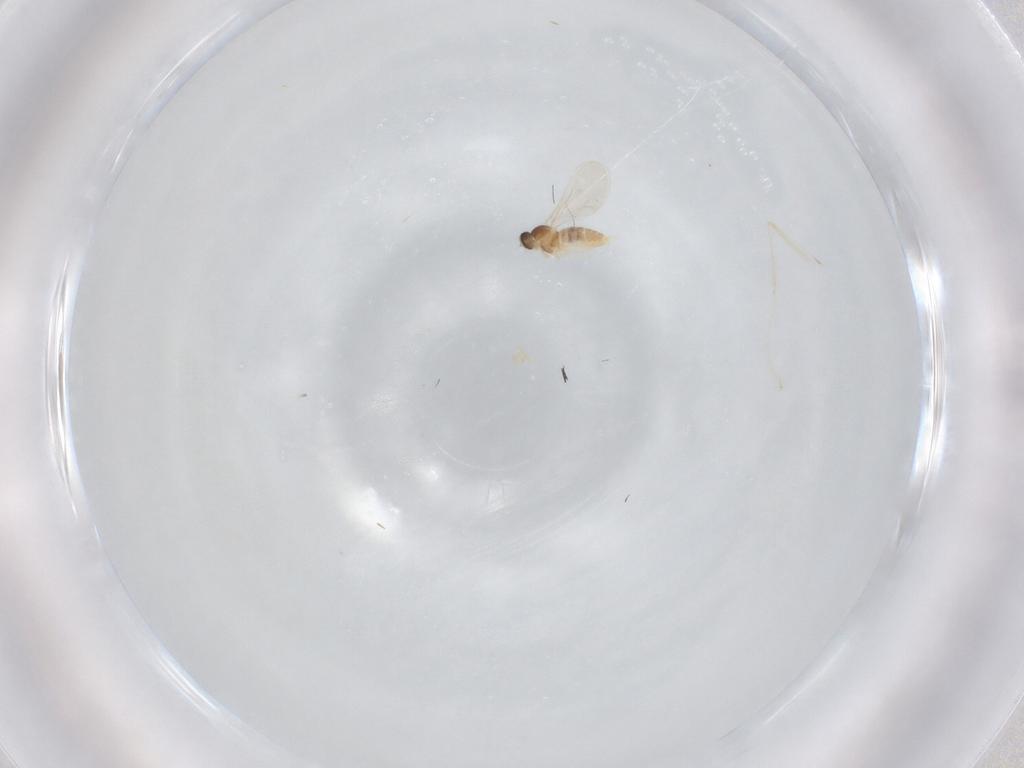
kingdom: Animalia
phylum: Arthropoda
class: Insecta
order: Diptera
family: Cecidomyiidae
